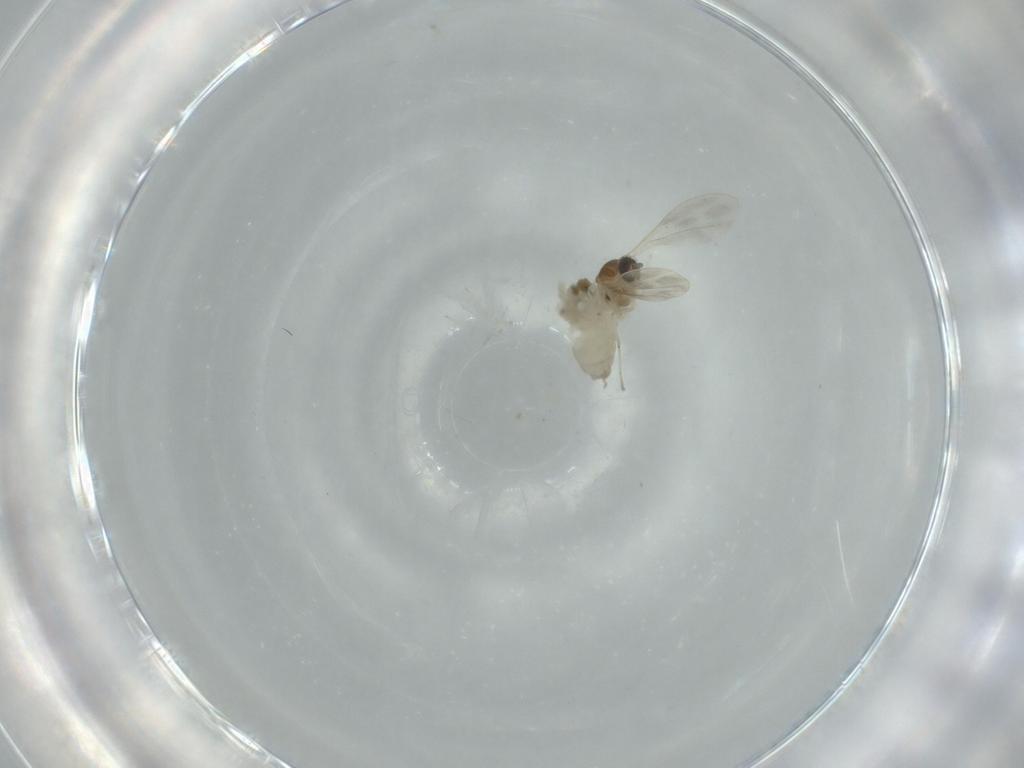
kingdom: Animalia
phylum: Arthropoda
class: Insecta
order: Diptera
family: Cecidomyiidae
